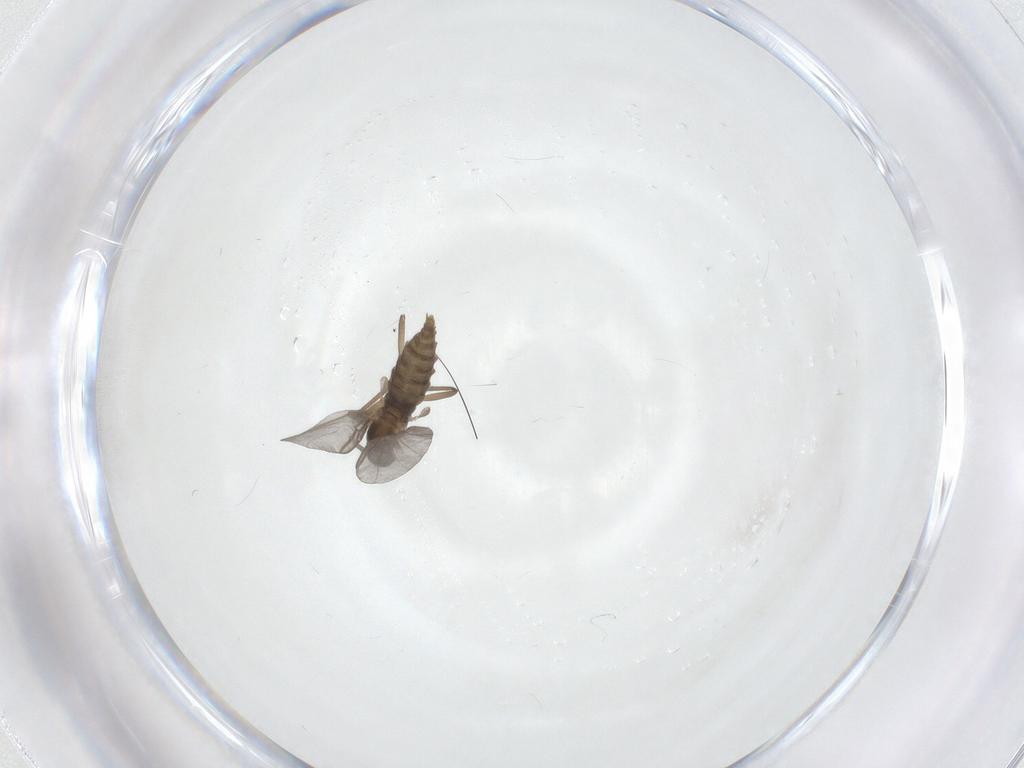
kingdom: Animalia
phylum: Arthropoda
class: Insecta
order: Diptera
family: Cecidomyiidae
